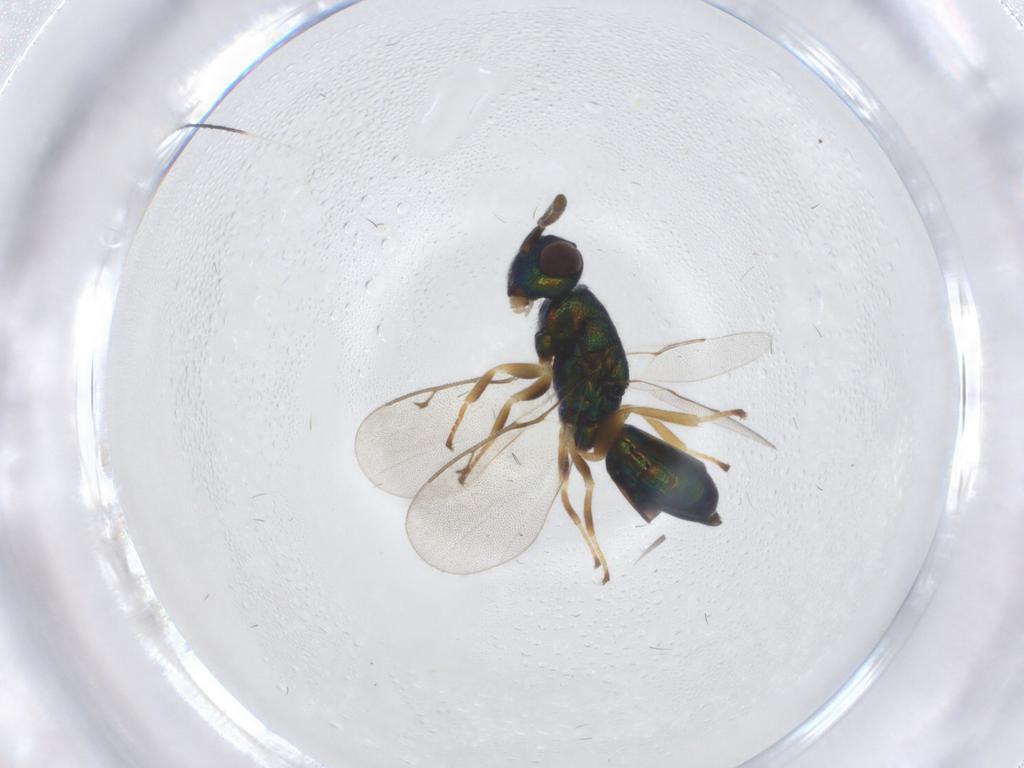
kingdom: Animalia
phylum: Arthropoda
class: Insecta
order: Hymenoptera
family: Eulophidae
